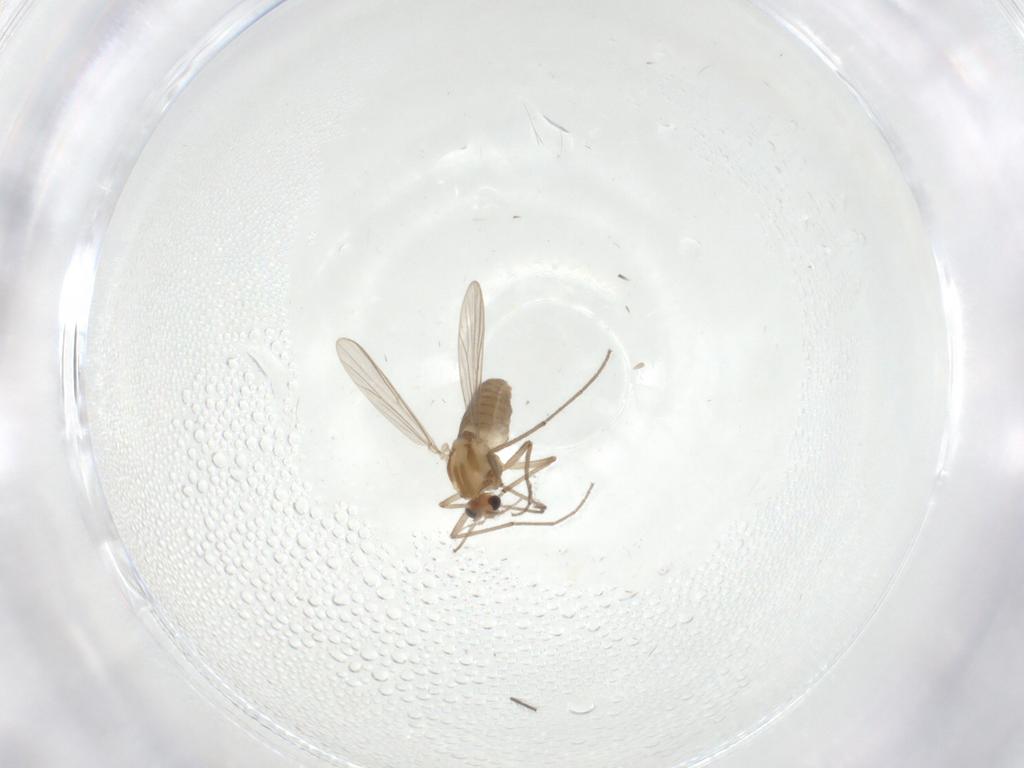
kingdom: Animalia
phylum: Arthropoda
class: Insecta
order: Diptera
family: Chironomidae
